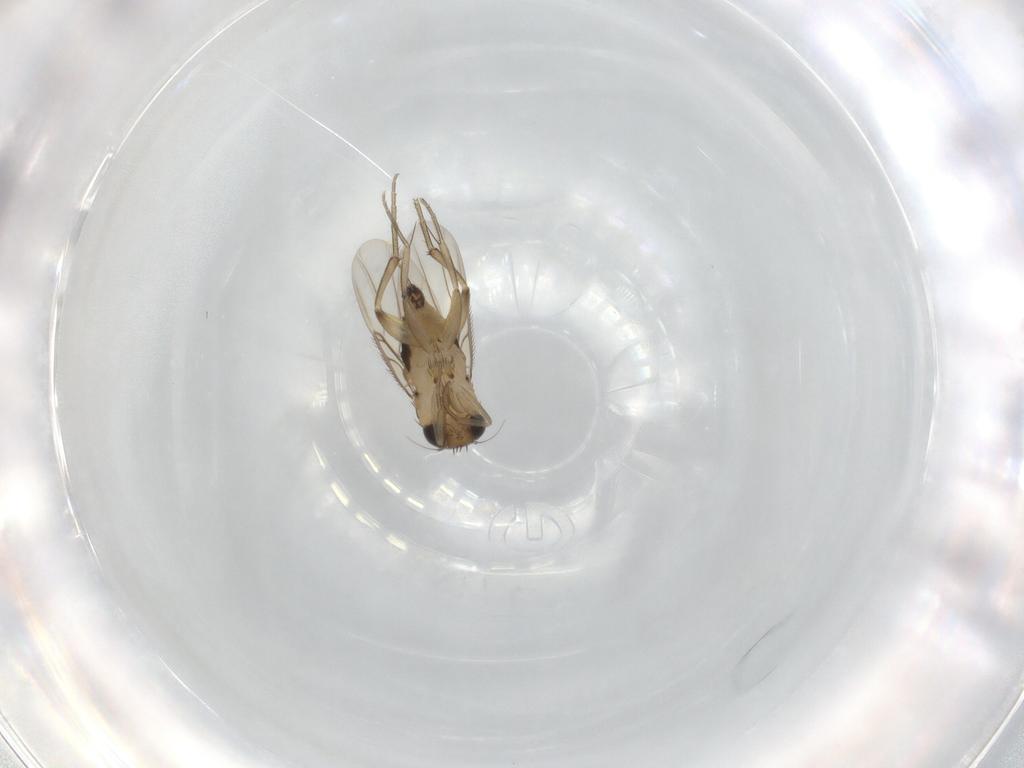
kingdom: Animalia
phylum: Arthropoda
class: Insecta
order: Diptera
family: Phoridae
